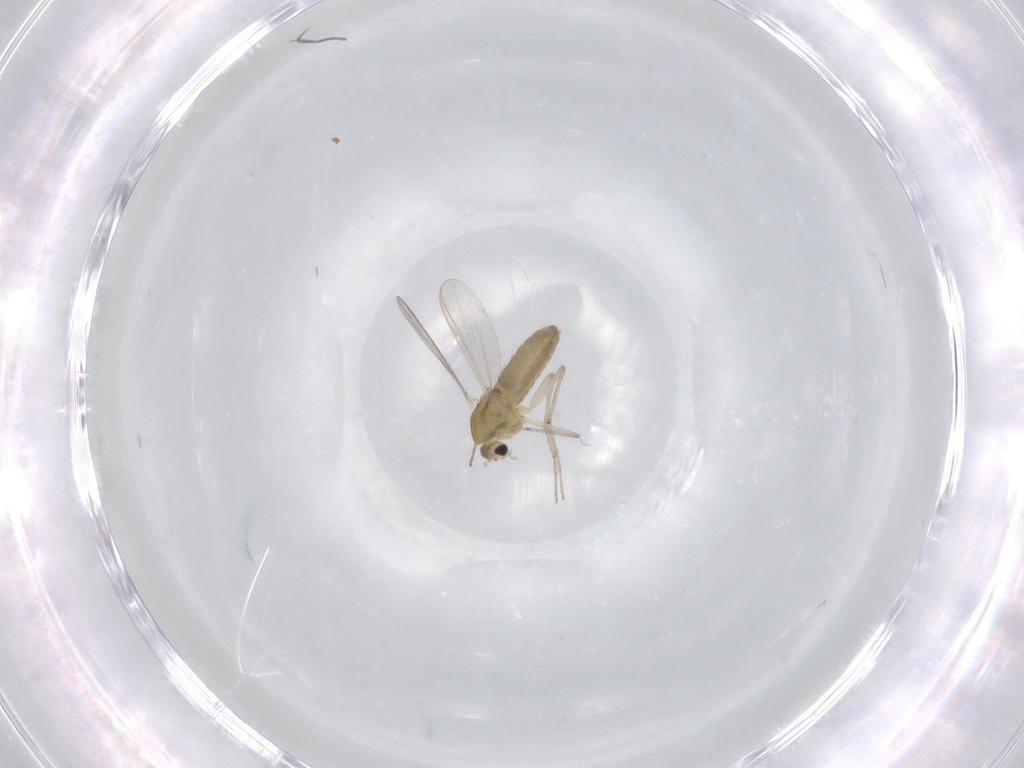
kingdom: Animalia
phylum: Arthropoda
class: Insecta
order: Diptera
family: Chironomidae
